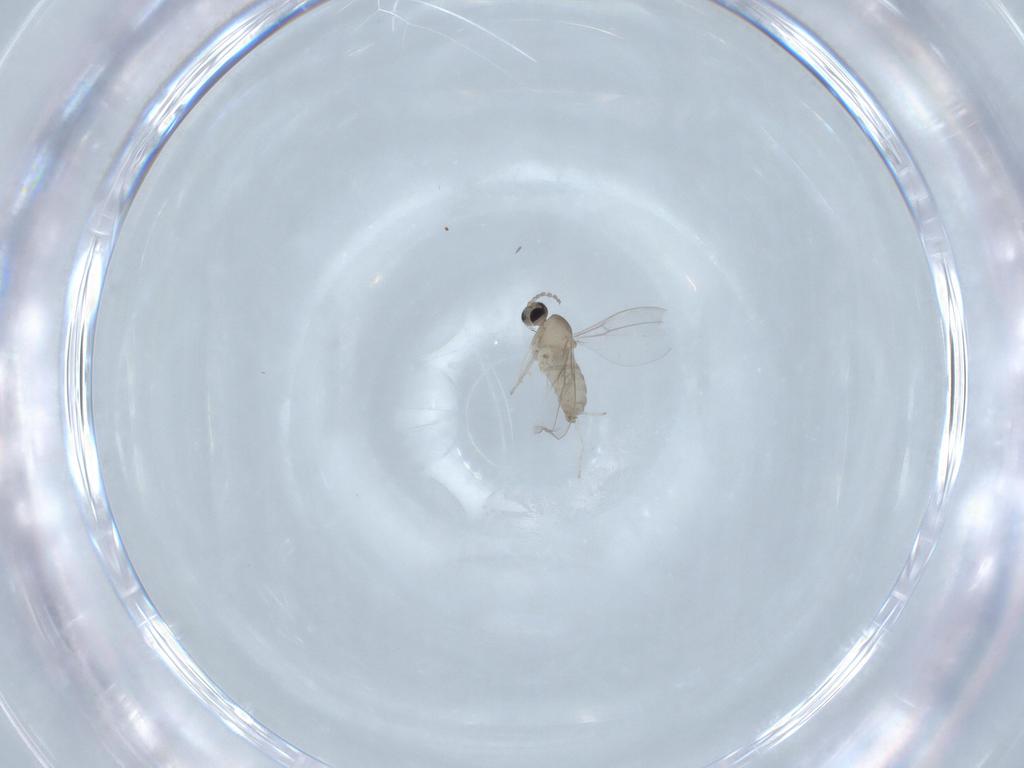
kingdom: Animalia
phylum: Arthropoda
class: Insecta
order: Diptera
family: Cecidomyiidae
